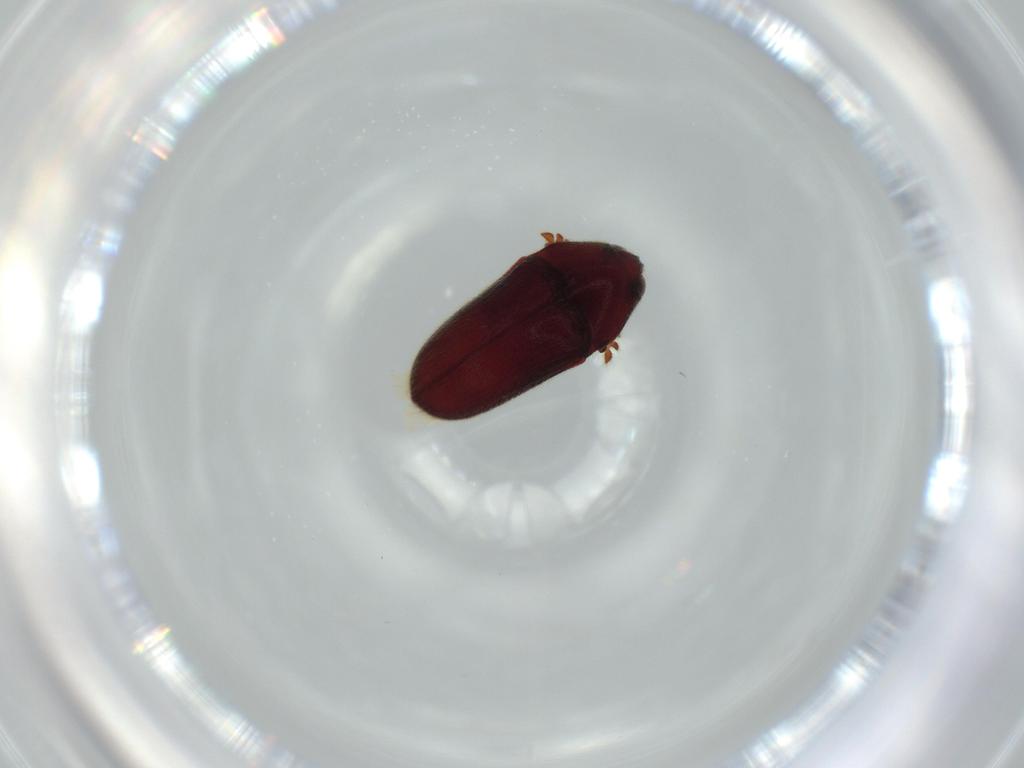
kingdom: Animalia
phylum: Arthropoda
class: Insecta
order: Coleoptera
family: Throscidae
